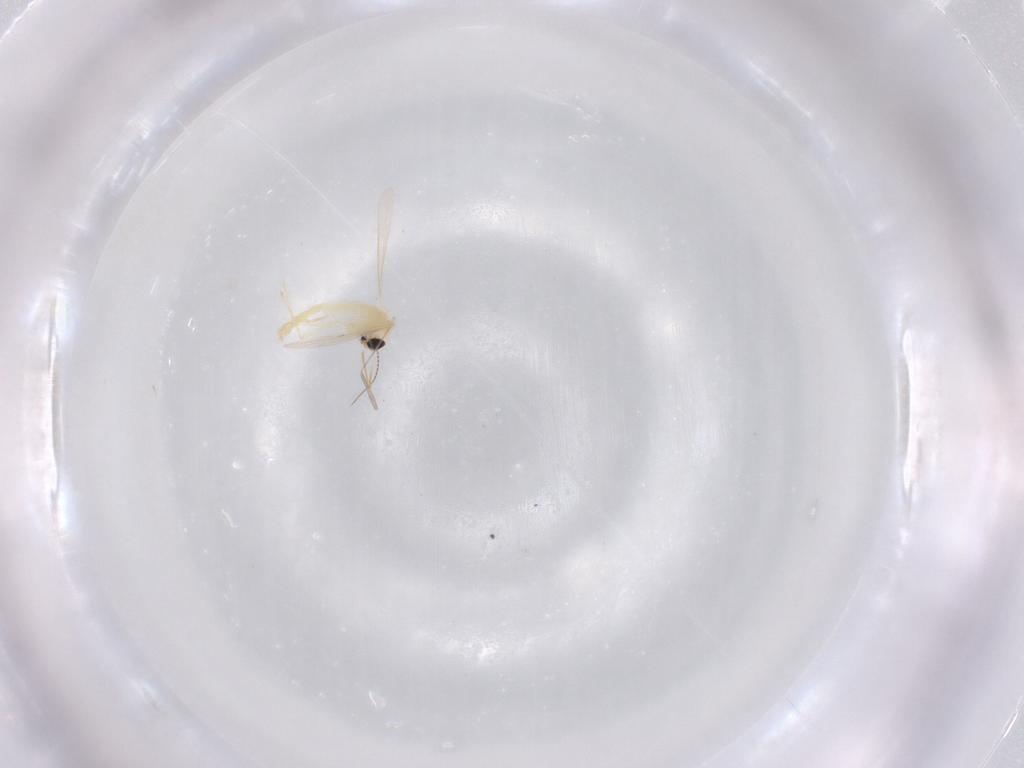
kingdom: Animalia
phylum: Arthropoda
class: Insecta
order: Diptera
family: Chironomidae
